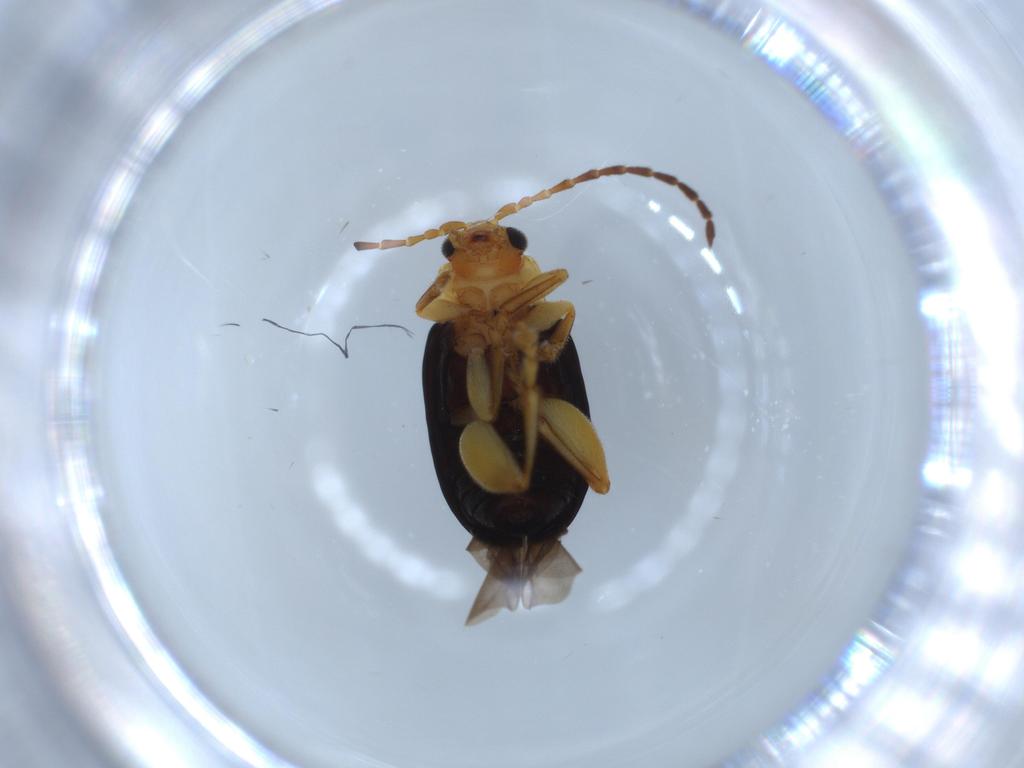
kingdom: Animalia
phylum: Arthropoda
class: Insecta
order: Coleoptera
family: Chrysomelidae
